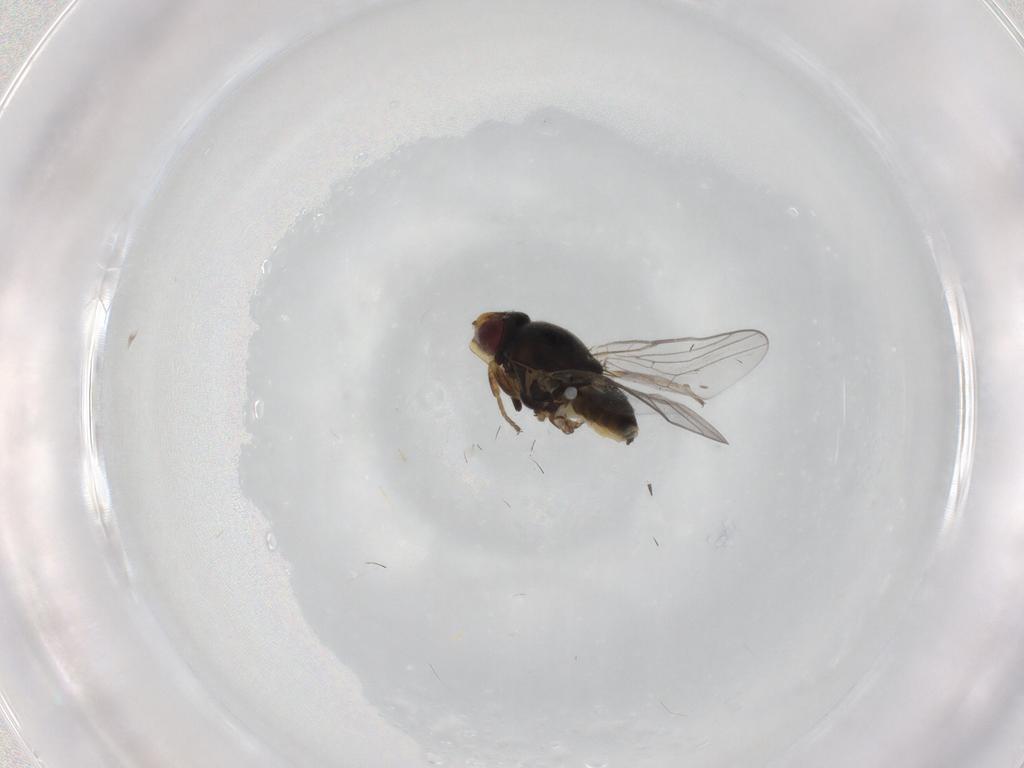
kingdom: Animalia
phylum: Arthropoda
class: Insecta
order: Diptera
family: Chloropidae
